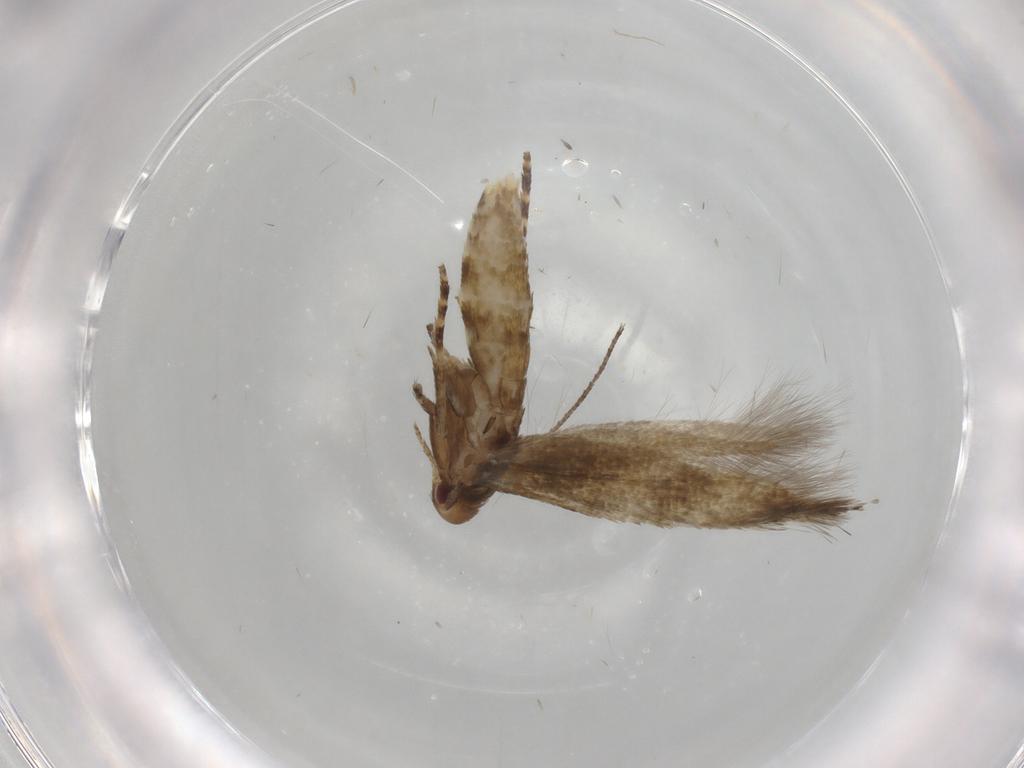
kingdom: Animalia
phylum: Arthropoda
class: Insecta
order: Lepidoptera
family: Momphidae
